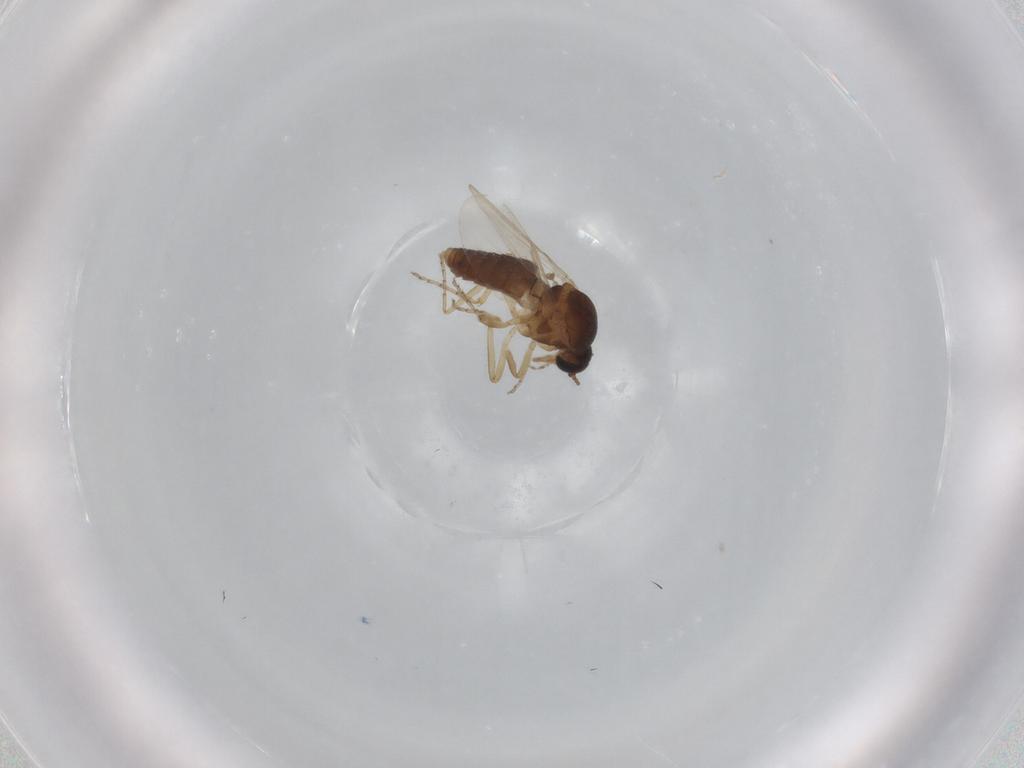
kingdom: Animalia
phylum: Arthropoda
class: Insecta
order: Diptera
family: Ceratopogonidae
